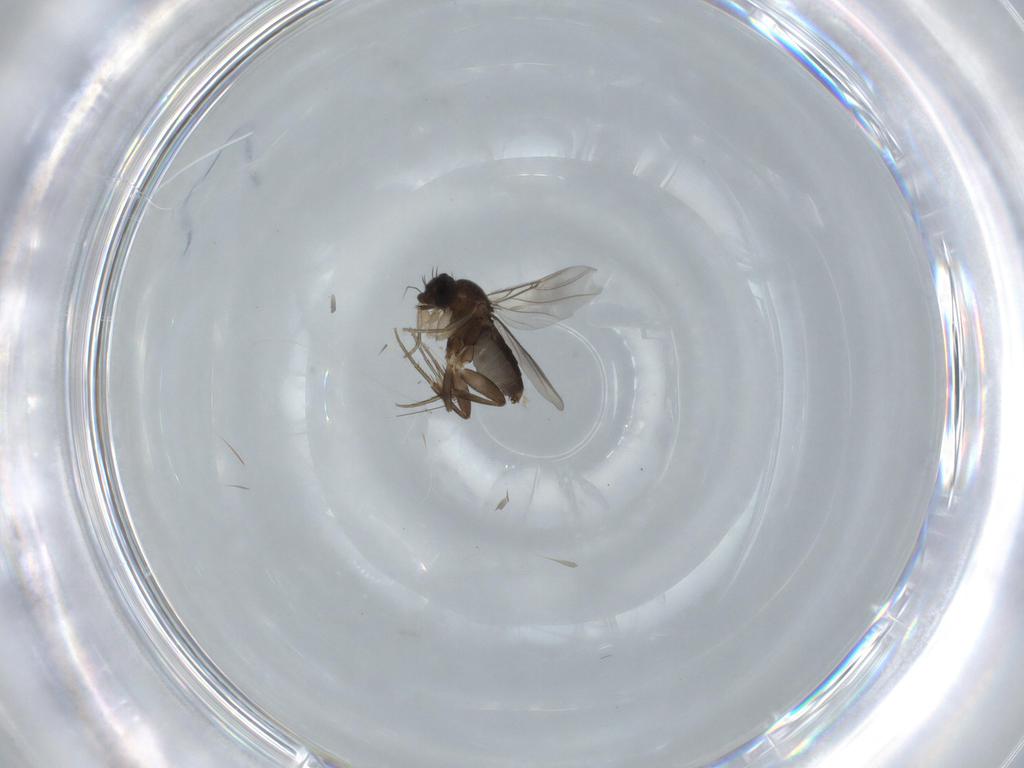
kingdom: Animalia
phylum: Arthropoda
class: Insecta
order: Diptera
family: Phoridae
